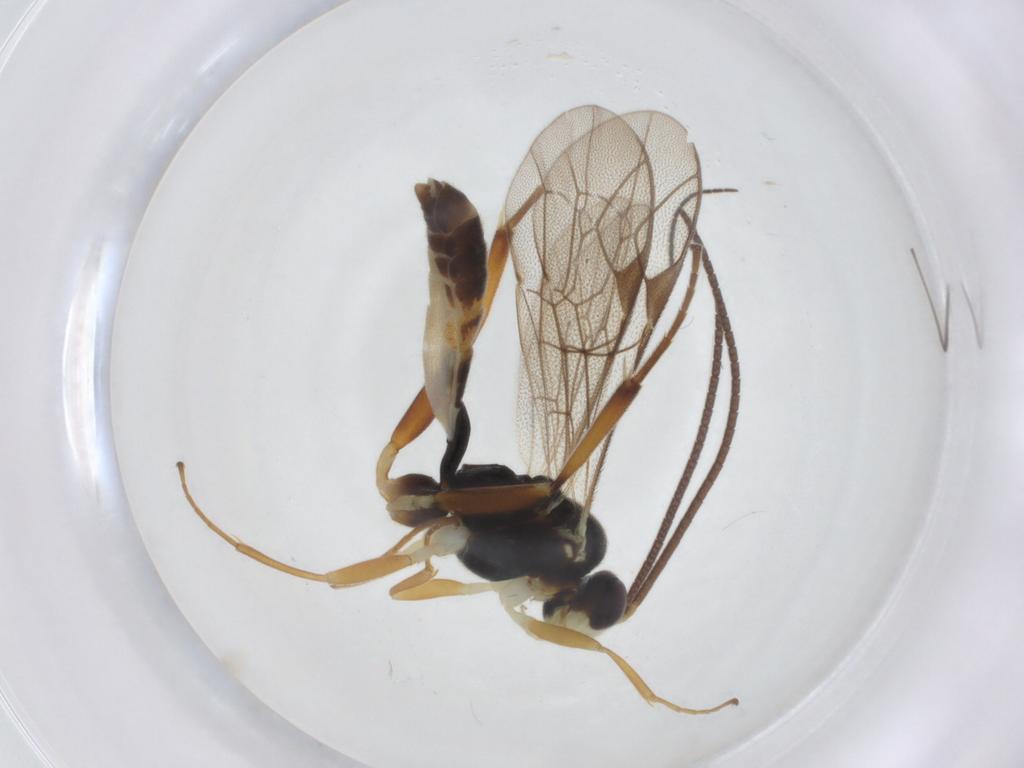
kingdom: Animalia
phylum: Arthropoda
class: Insecta
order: Hymenoptera
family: Ichneumonidae
